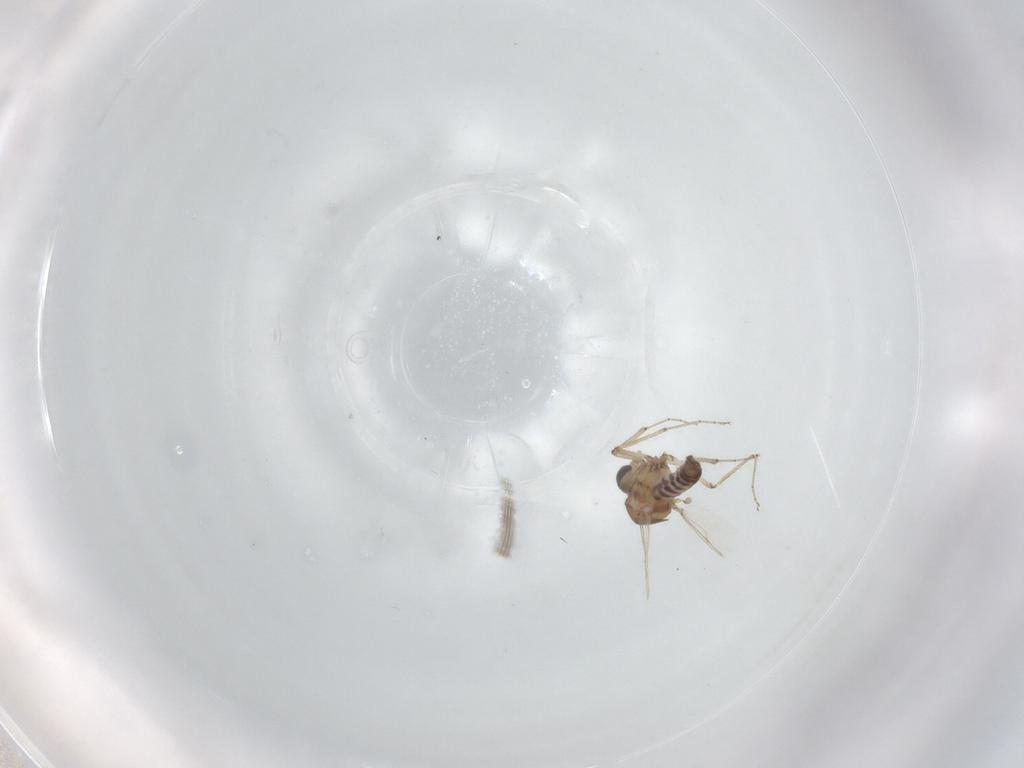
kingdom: Animalia
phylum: Arthropoda
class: Insecta
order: Diptera
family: Ceratopogonidae
